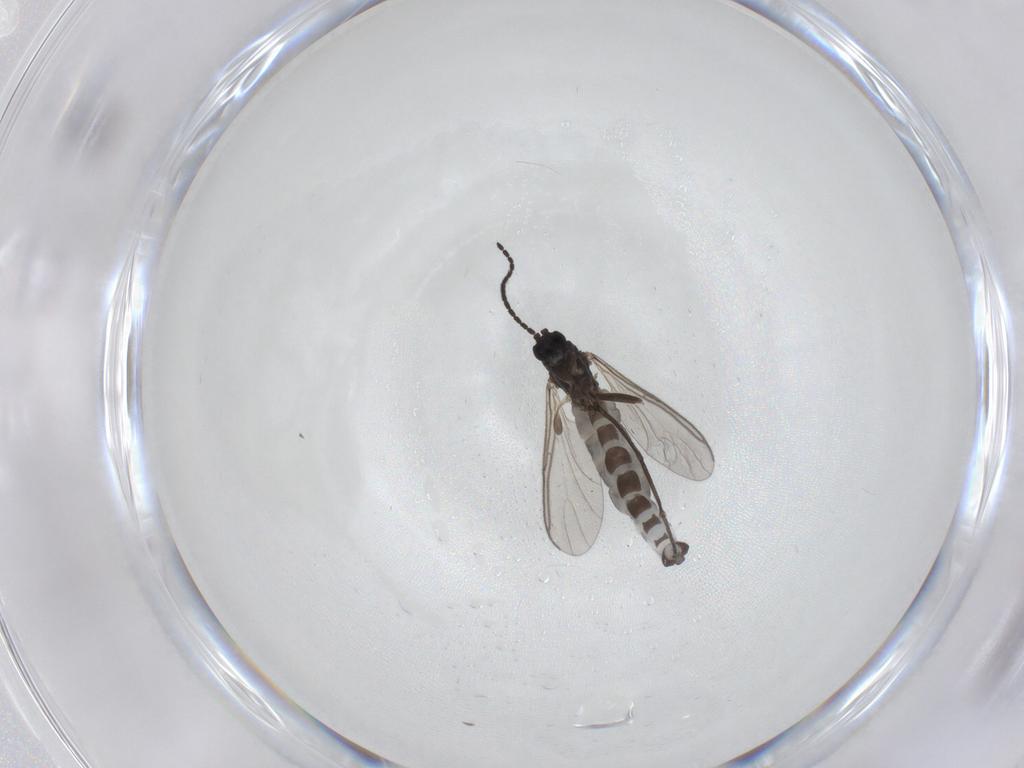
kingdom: Animalia
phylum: Arthropoda
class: Insecta
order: Diptera
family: Sciaridae
